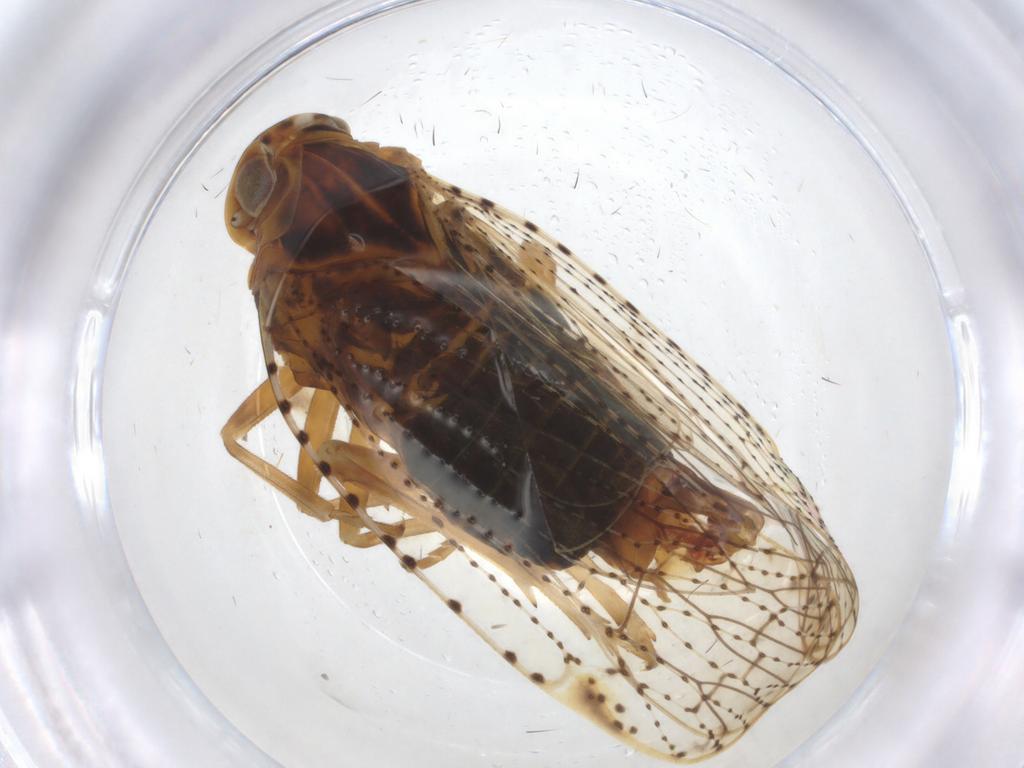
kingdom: Animalia
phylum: Arthropoda
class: Insecta
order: Hemiptera
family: Cixiidae
